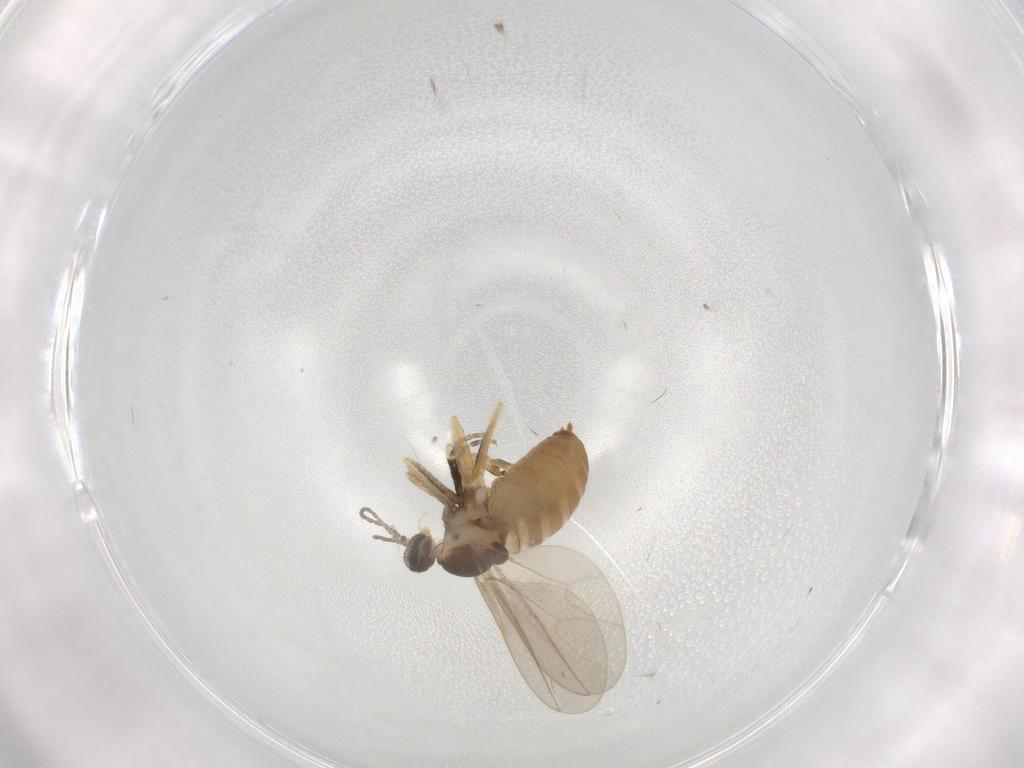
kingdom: Animalia
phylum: Arthropoda
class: Insecta
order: Diptera
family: Cecidomyiidae
